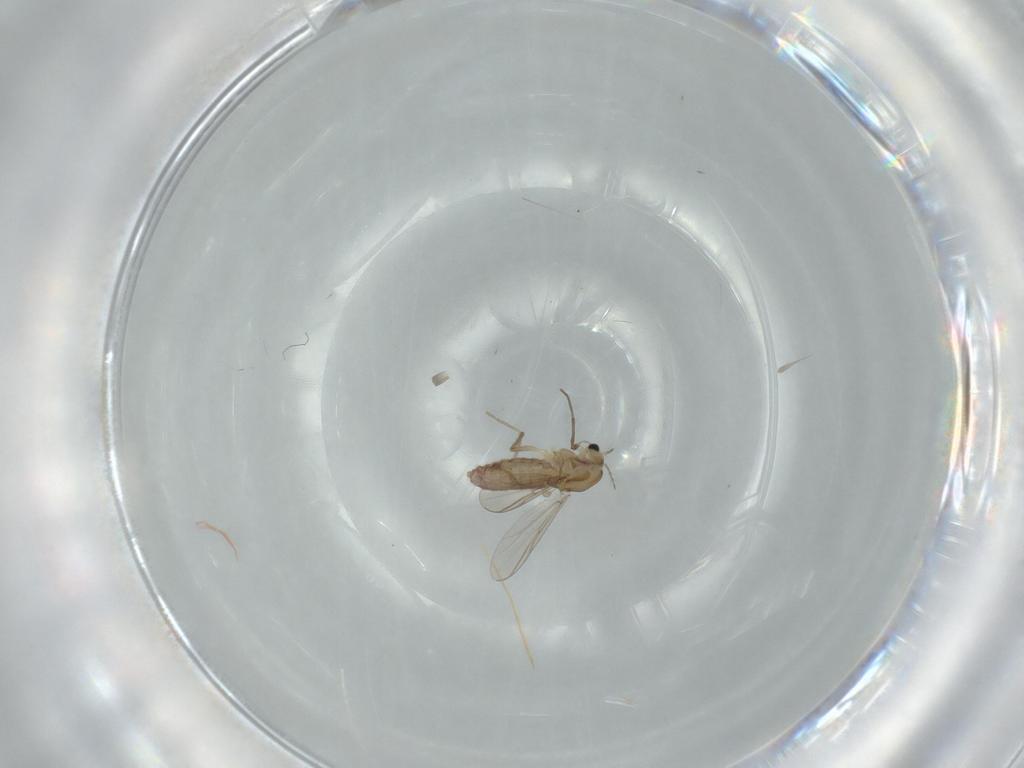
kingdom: Animalia
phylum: Arthropoda
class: Insecta
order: Diptera
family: Chironomidae
